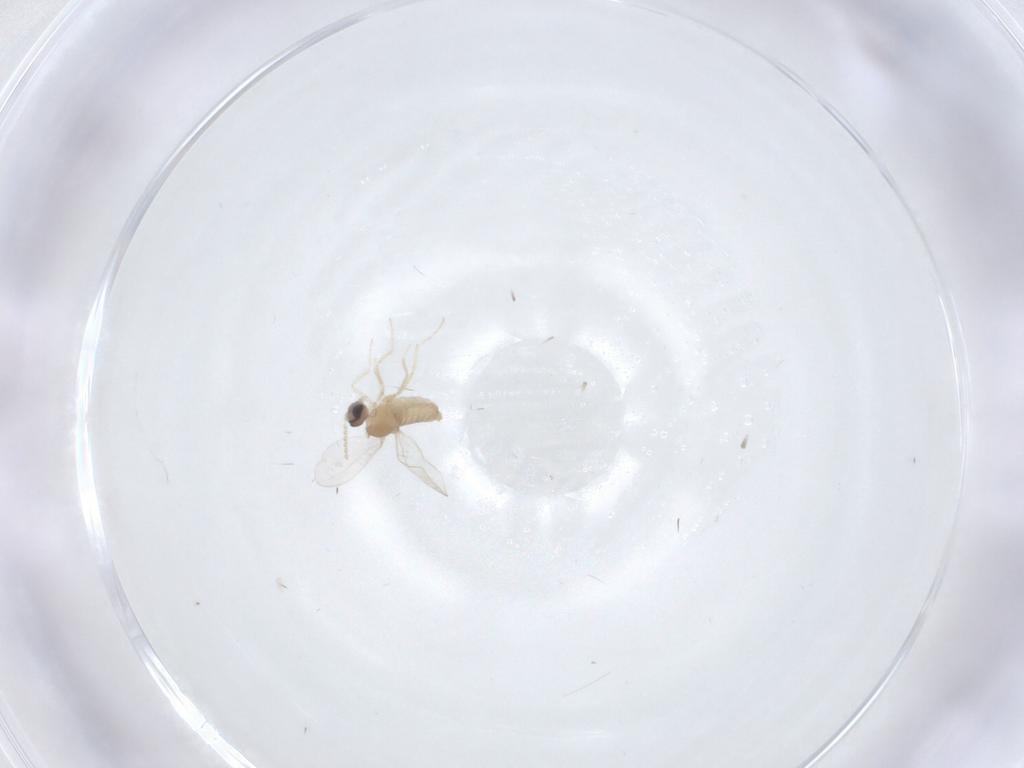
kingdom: Animalia
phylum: Arthropoda
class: Insecta
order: Diptera
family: Cecidomyiidae
